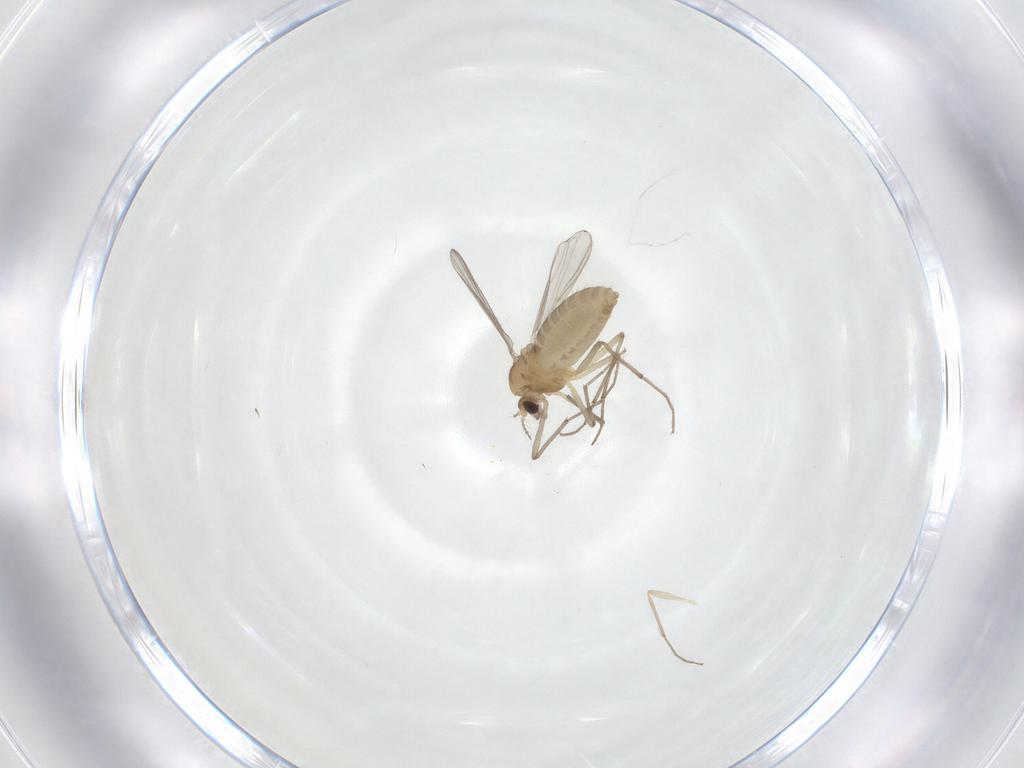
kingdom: Animalia
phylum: Arthropoda
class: Insecta
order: Diptera
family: Chironomidae
